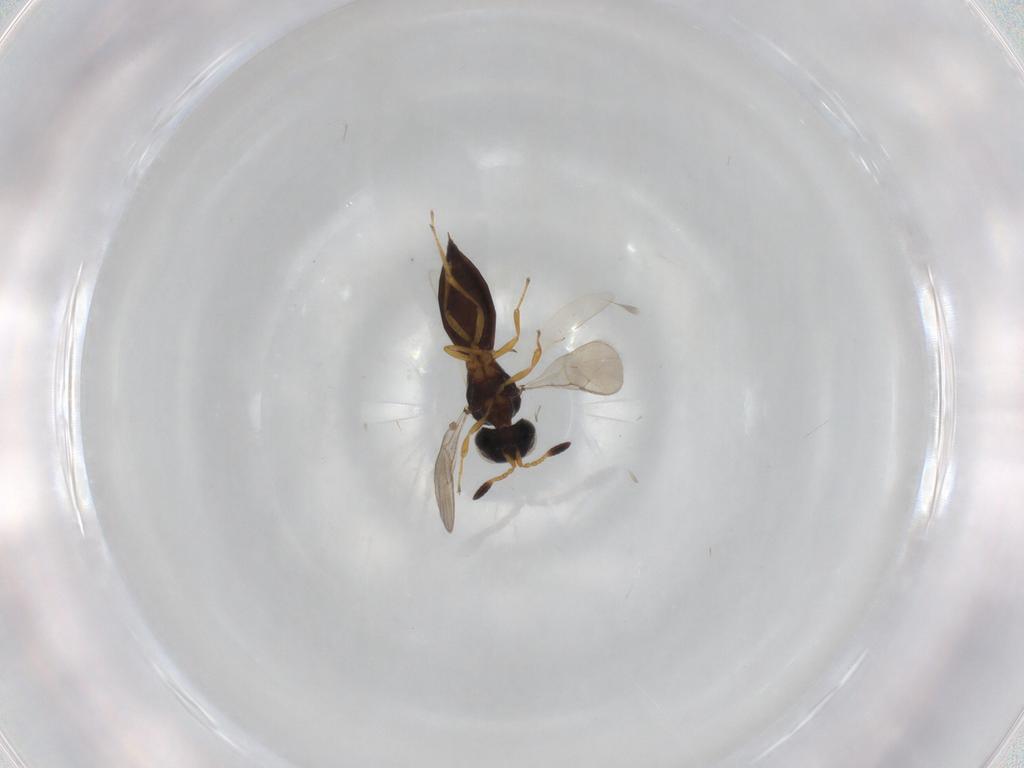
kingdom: Animalia
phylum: Arthropoda
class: Insecta
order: Hymenoptera
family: Scelionidae
